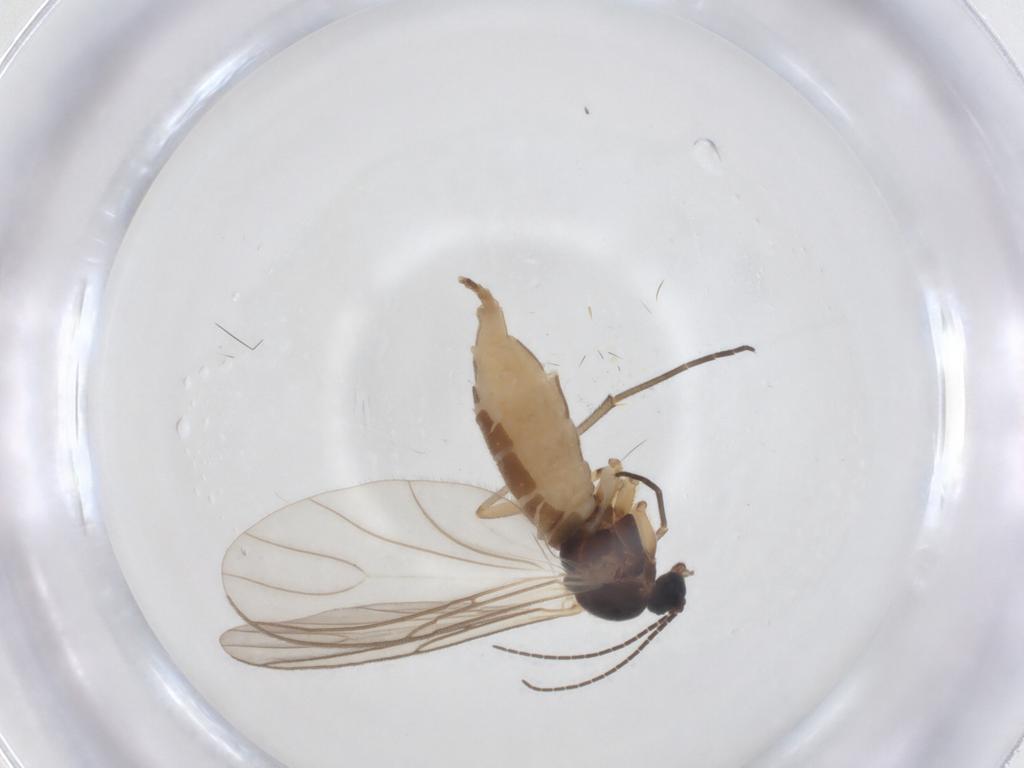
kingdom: Animalia
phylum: Arthropoda
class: Insecta
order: Diptera
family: Sciaridae
